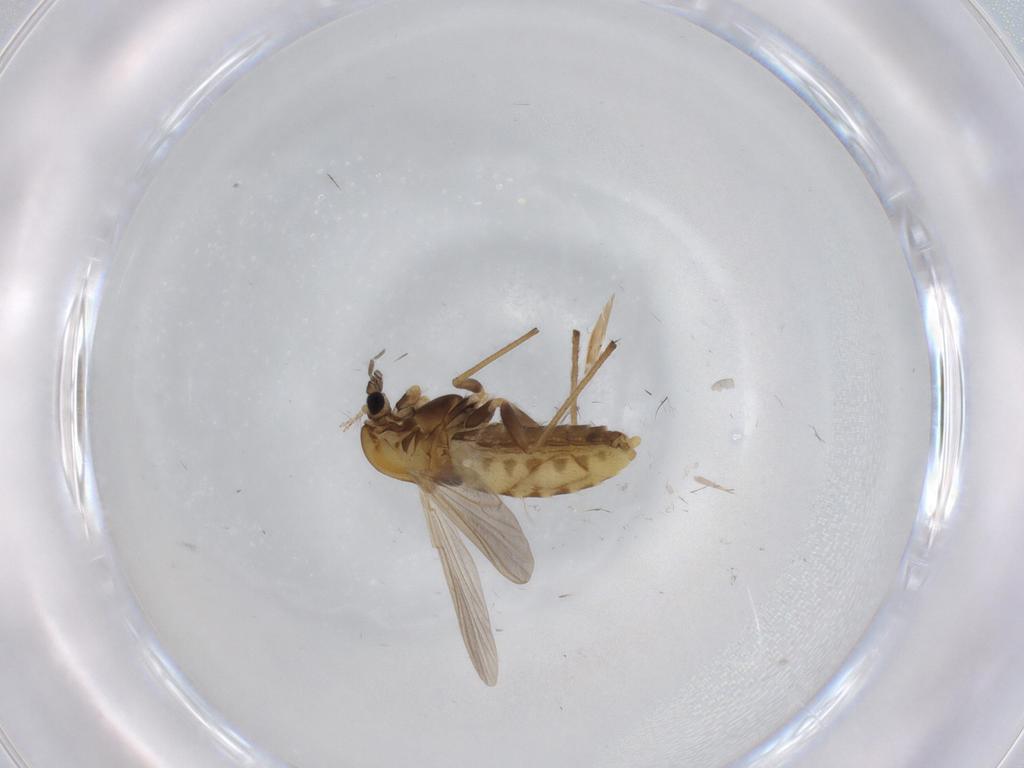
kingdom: Animalia
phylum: Arthropoda
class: Insecta
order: Diptera
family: Chironomidae
